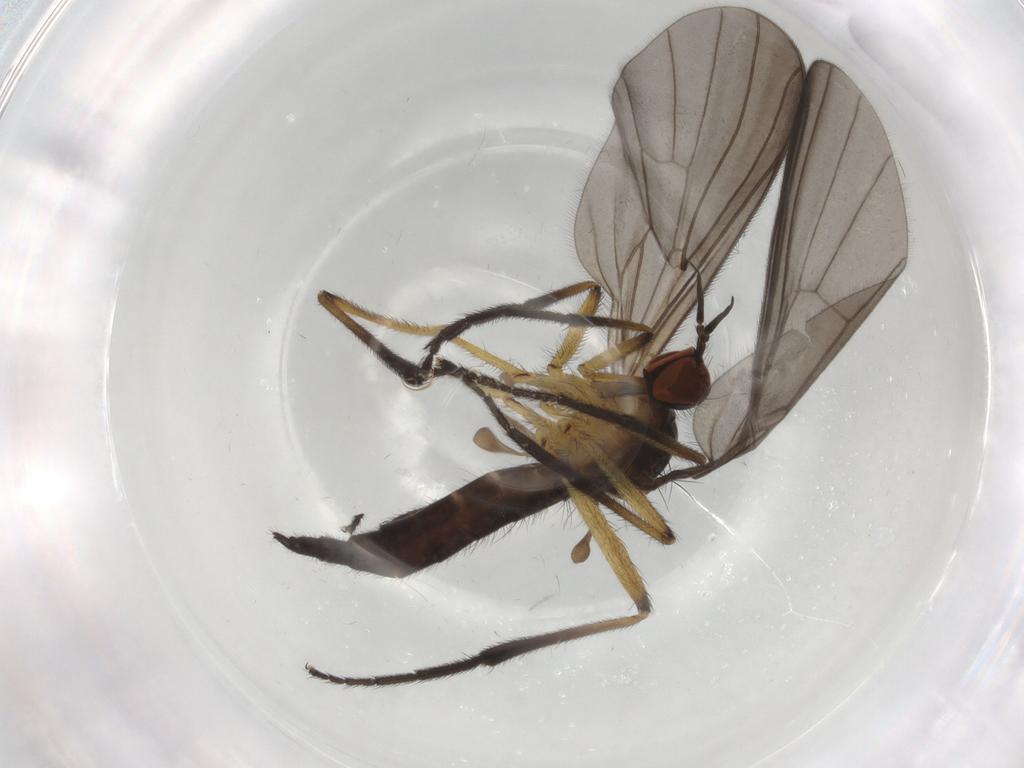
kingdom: Animalia
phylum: Arthropoda
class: Insecta
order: Diptera
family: Empididae
